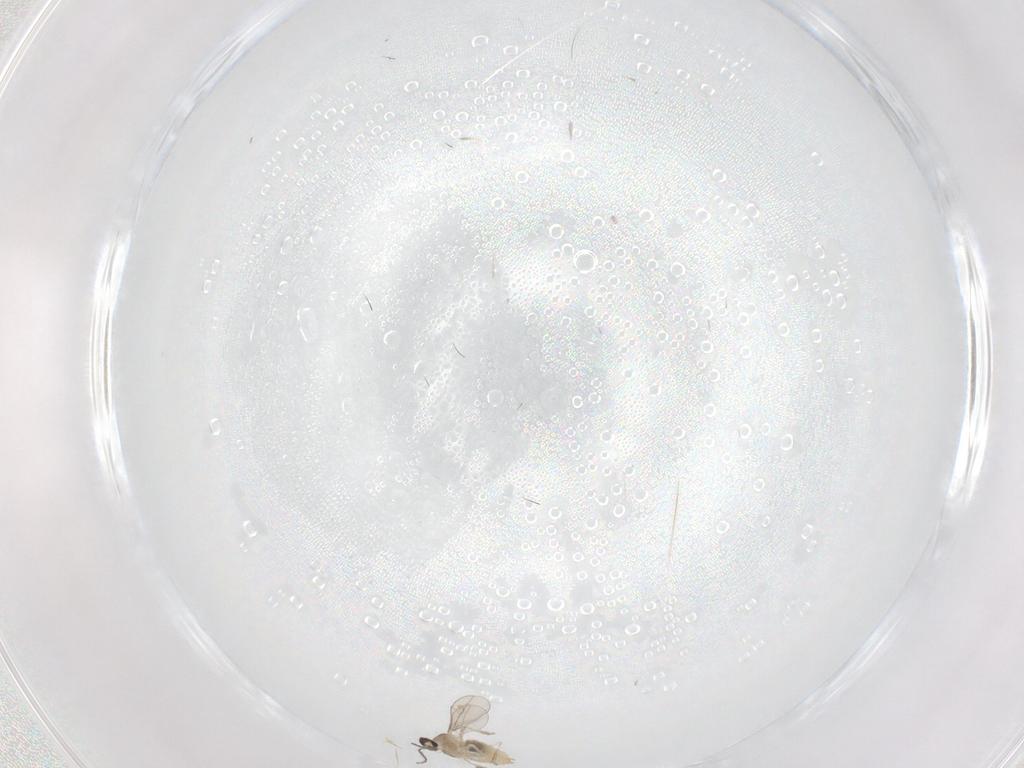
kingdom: Animalia
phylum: Arthropoda
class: Insecta
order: Diptera
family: Cecidomyiidae
